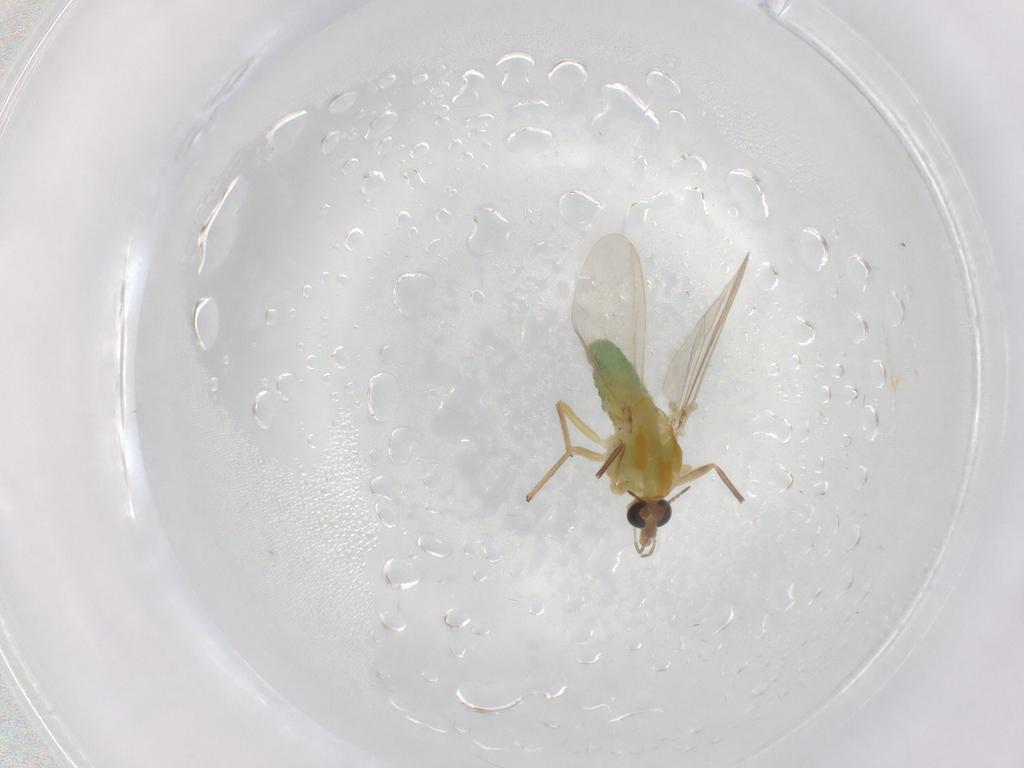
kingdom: Animalia
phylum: Arthropoda
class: Insecta
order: Diptera
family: Chironomidae
